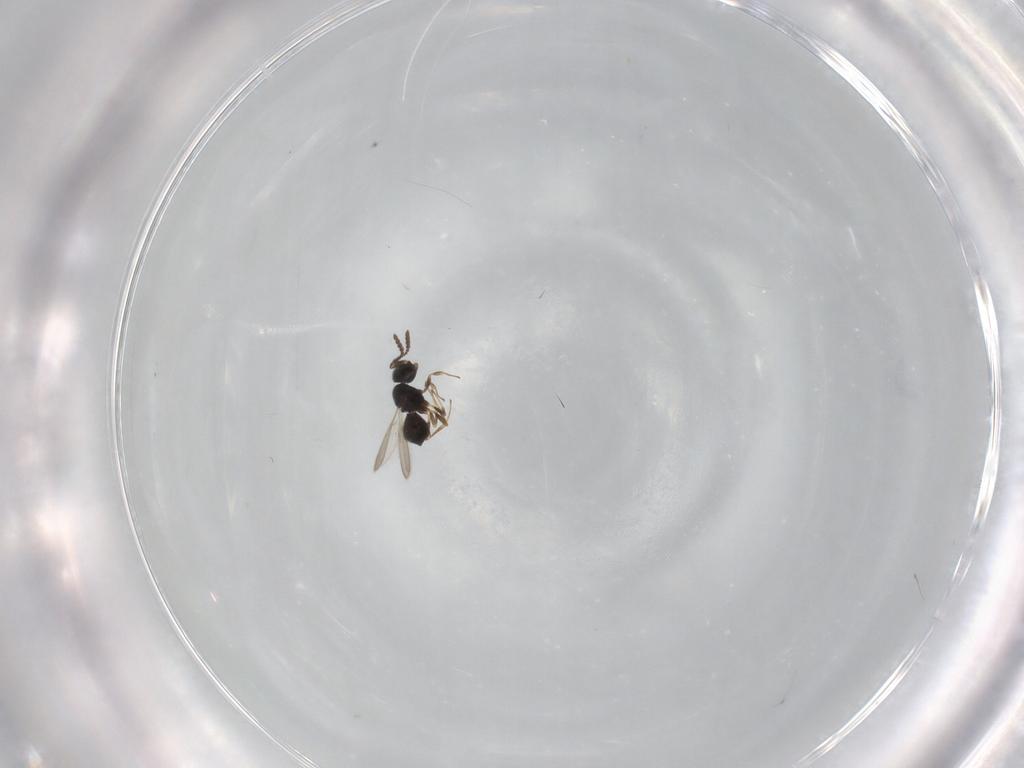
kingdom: Animalia
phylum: Arthropoda
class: Insecta
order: Hymenoptera
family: Scelionidae
